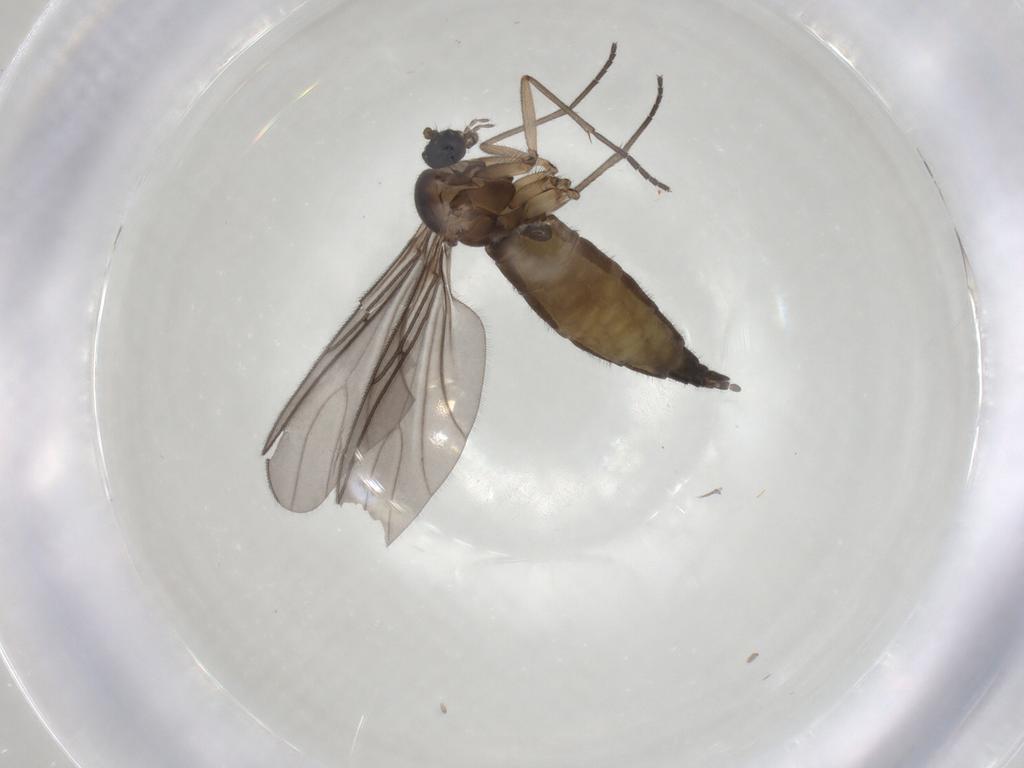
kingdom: Animalia
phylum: Arthropoda
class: Insecta
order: Diptera
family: Sciaridae
